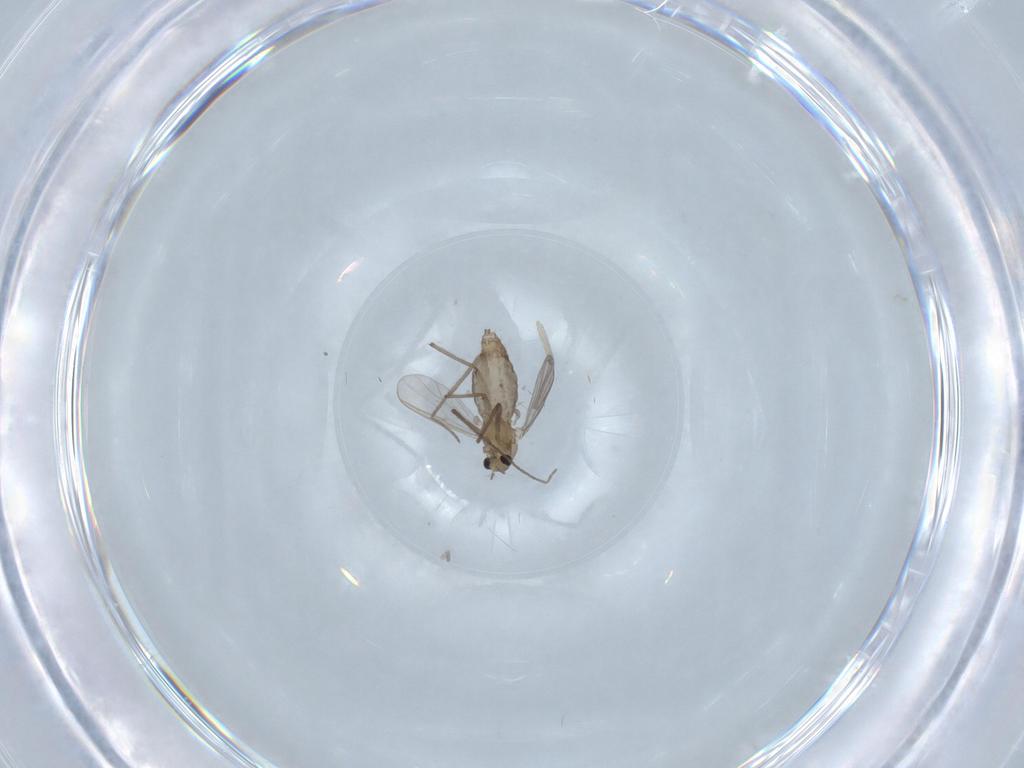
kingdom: Animalia
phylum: Arthropoda
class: Insecta
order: Diptera
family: Chironomidae
